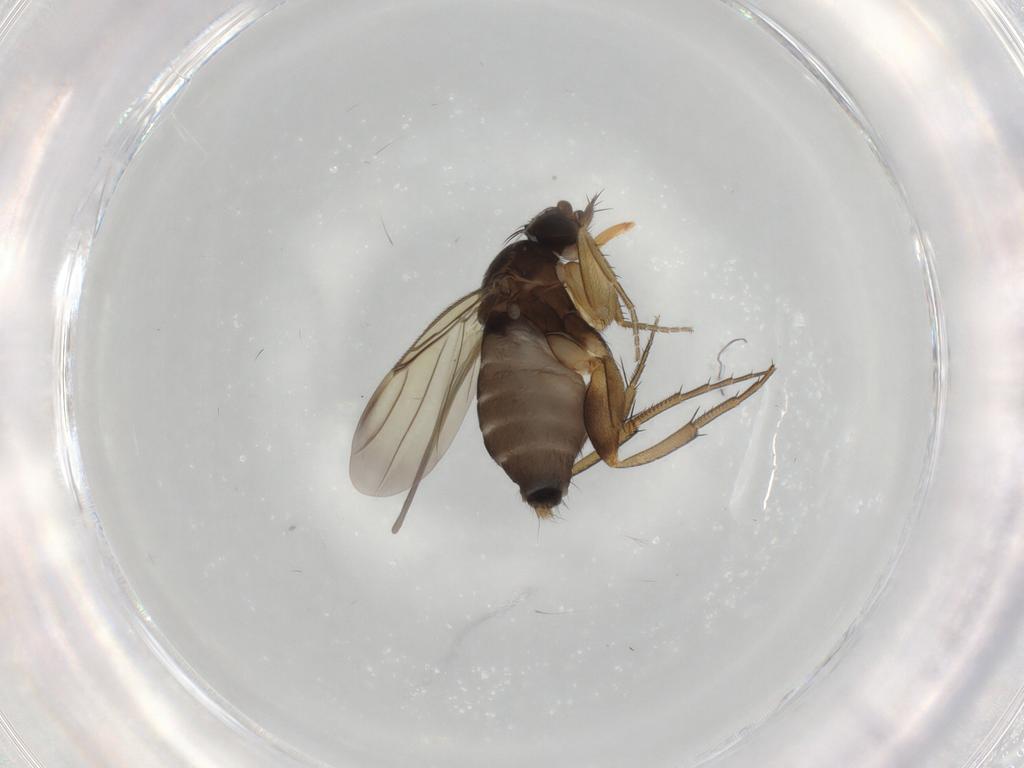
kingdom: Animalia
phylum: Arthropoda
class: Insecta
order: Diptera
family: Phoridae
